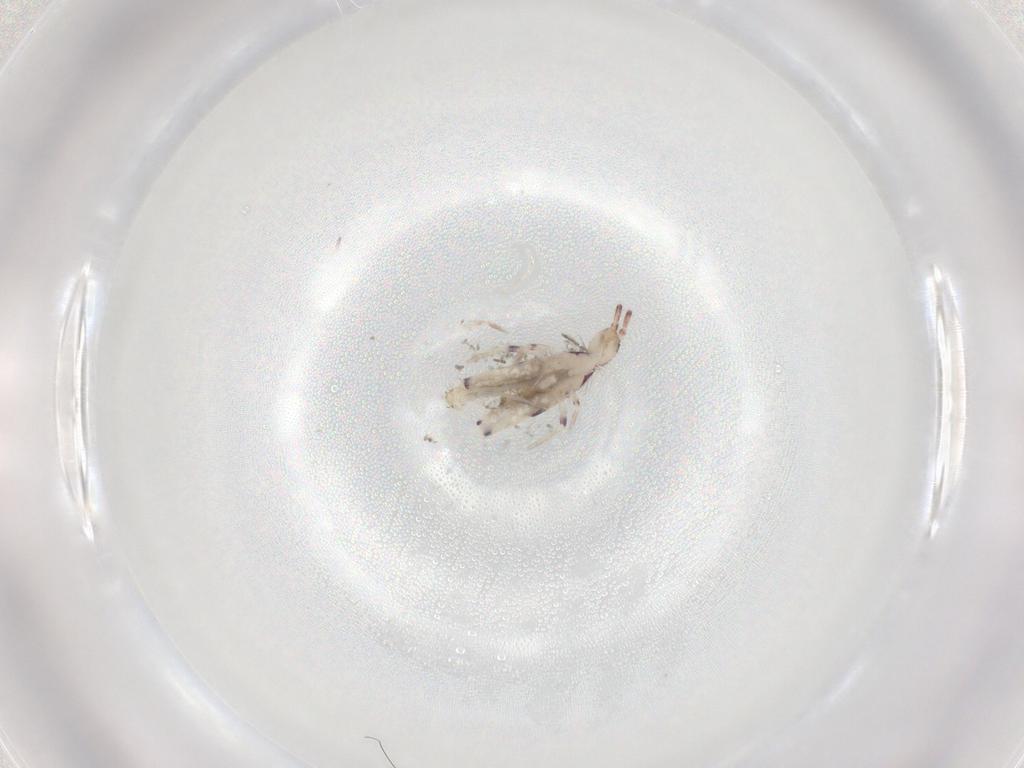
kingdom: Animalia
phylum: Arthropoda
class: Collembola
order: Entomobryomorpha
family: Entomobryidae
